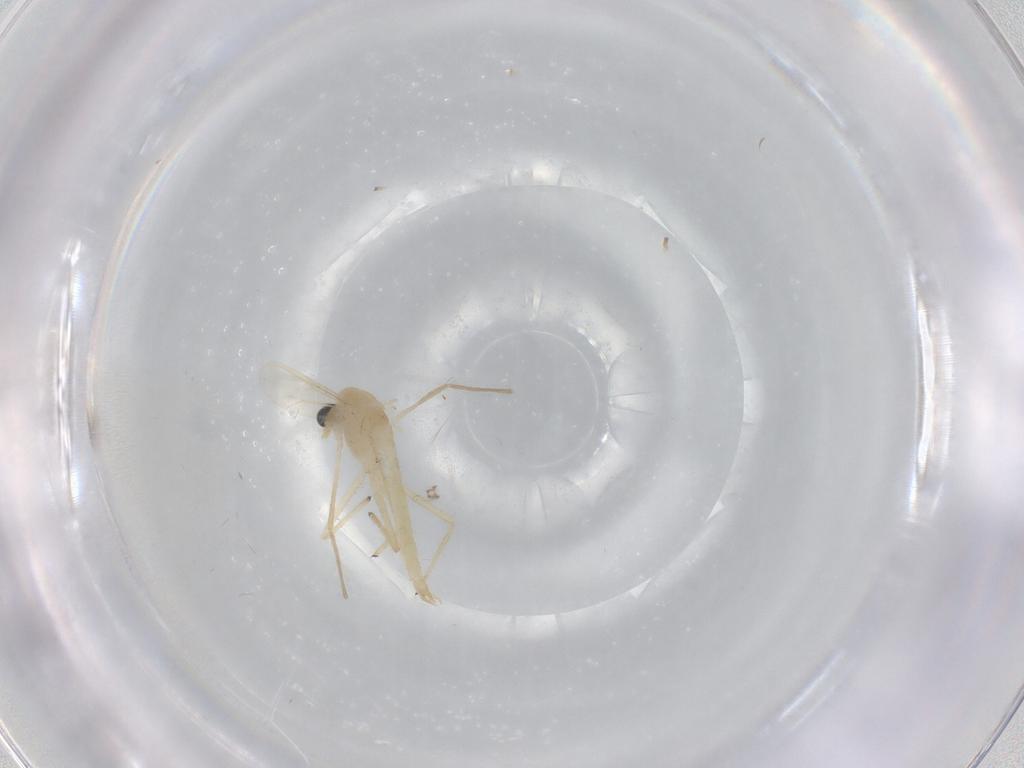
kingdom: Animalia
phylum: Arthropoda
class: Insecta
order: Diptera
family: Chironomidae
